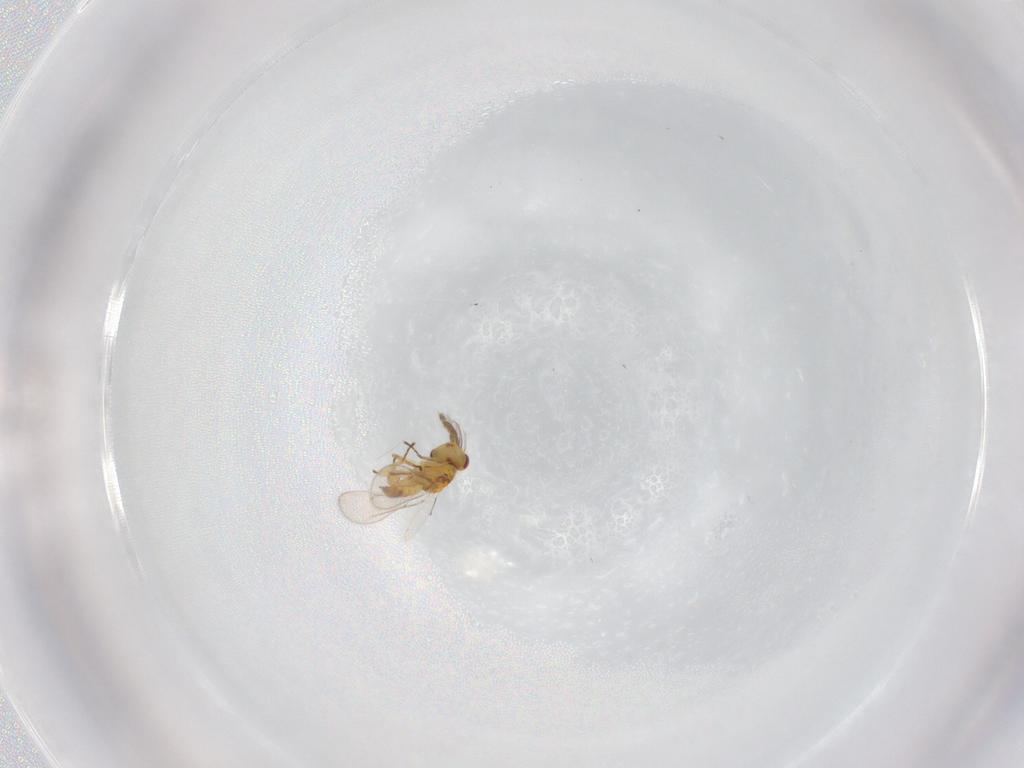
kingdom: Animalia
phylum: Arthropoda
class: Insecta
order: Hymenoptera
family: Eulophidae
